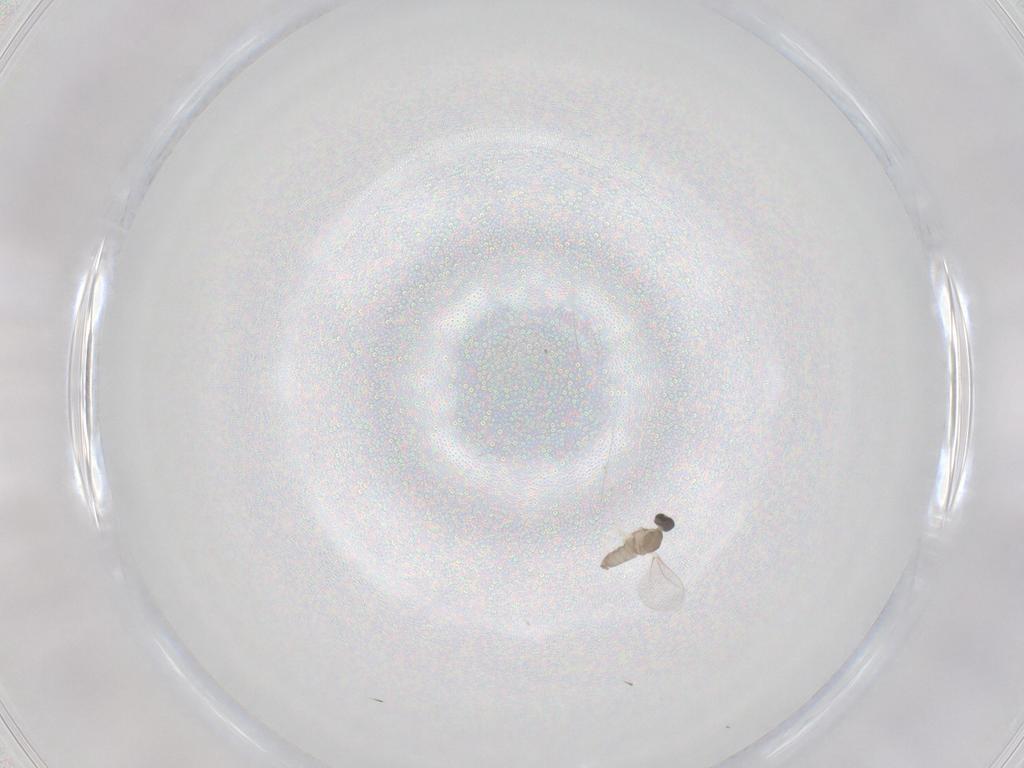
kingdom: Animalia
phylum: Arthropoda
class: Insecta
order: Diptera
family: Cecidomyiidae
